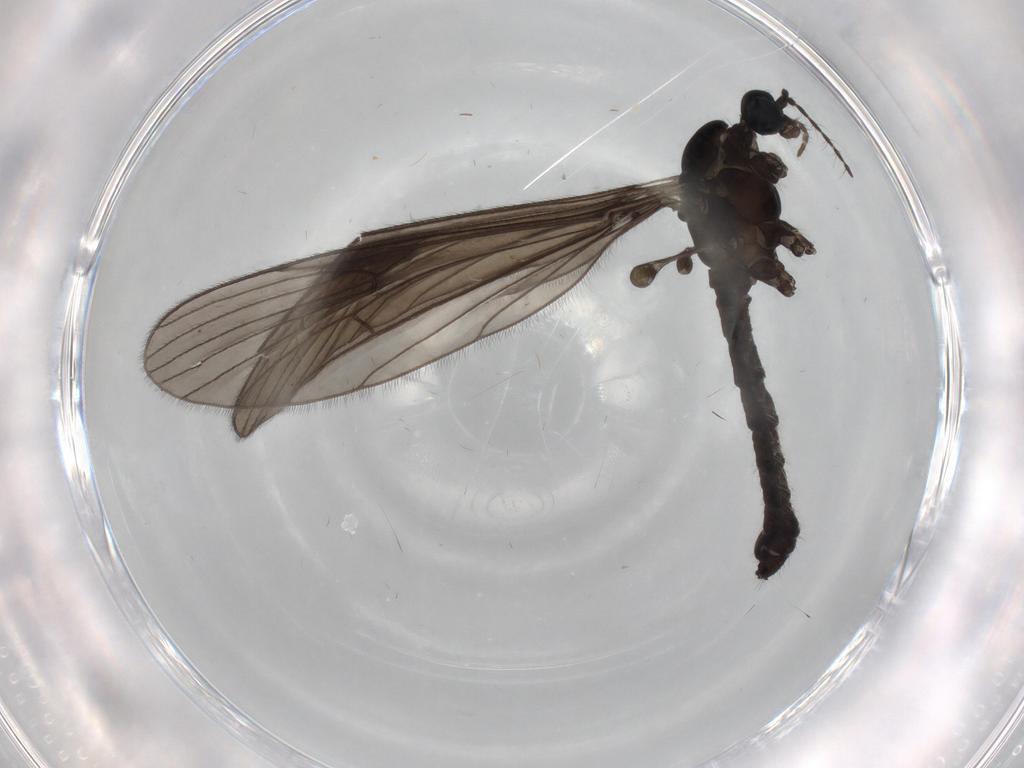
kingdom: Animalia
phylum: Arthropoda
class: Insecta
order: Diptera
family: Limoniidae
